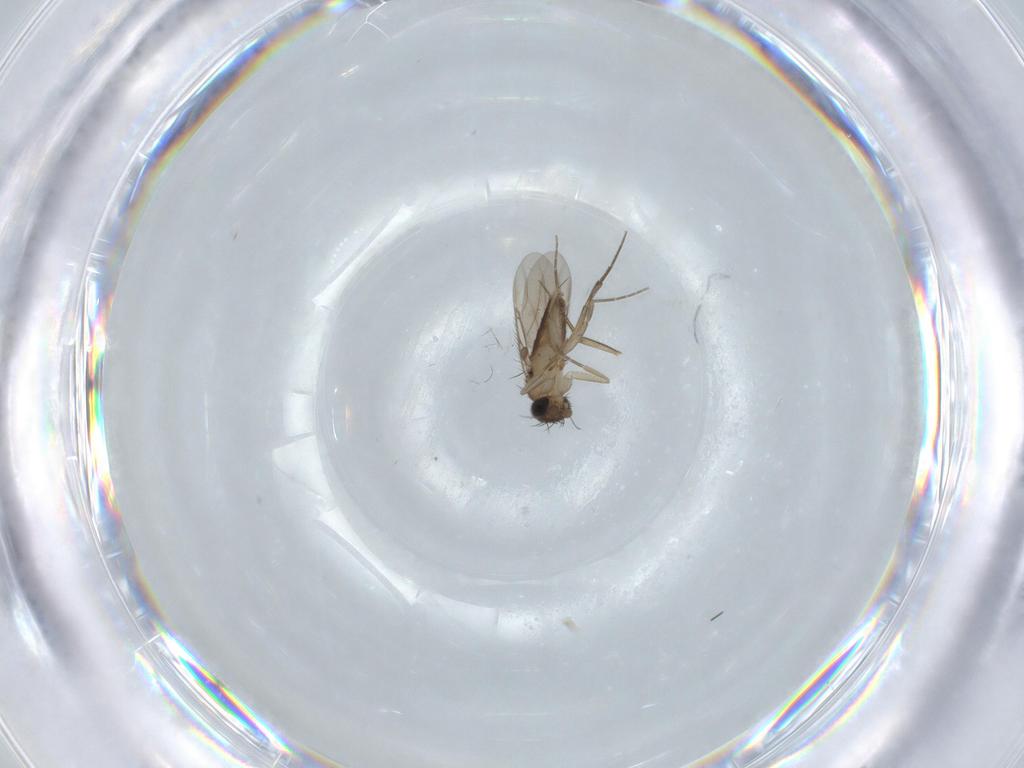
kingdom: Animalia
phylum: Arthropoda
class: Insecta
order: Diptera
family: Phoridae
